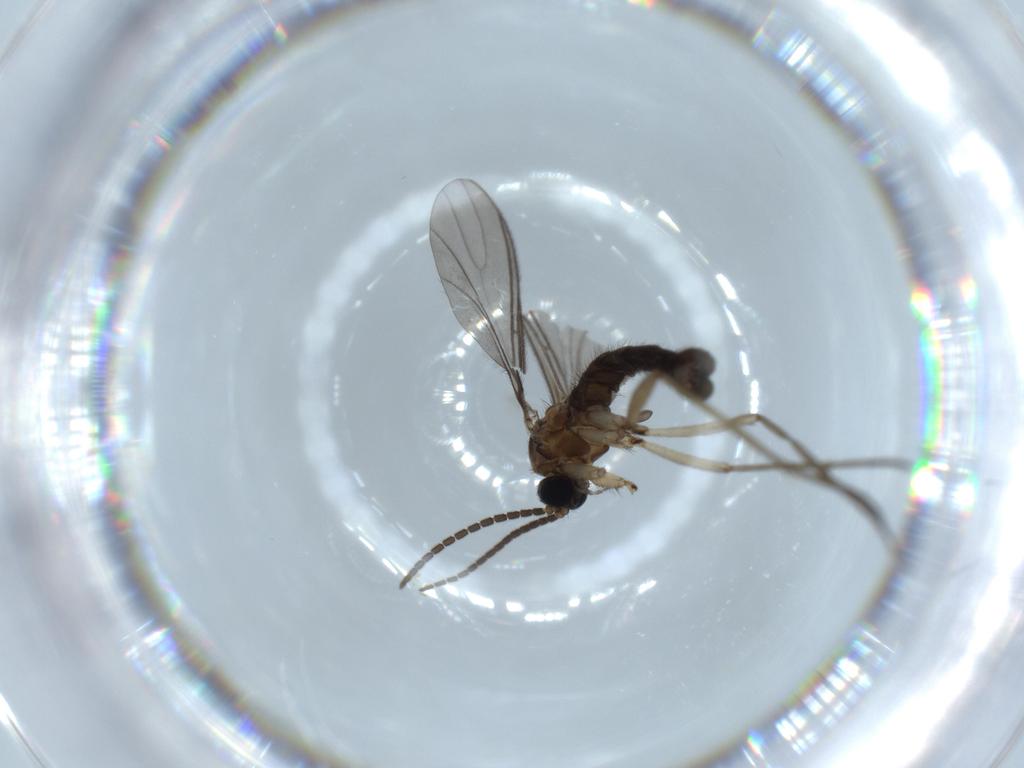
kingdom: Animalia
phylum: Arthropoda
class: Insecta
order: Diptera
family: Sciaridae
